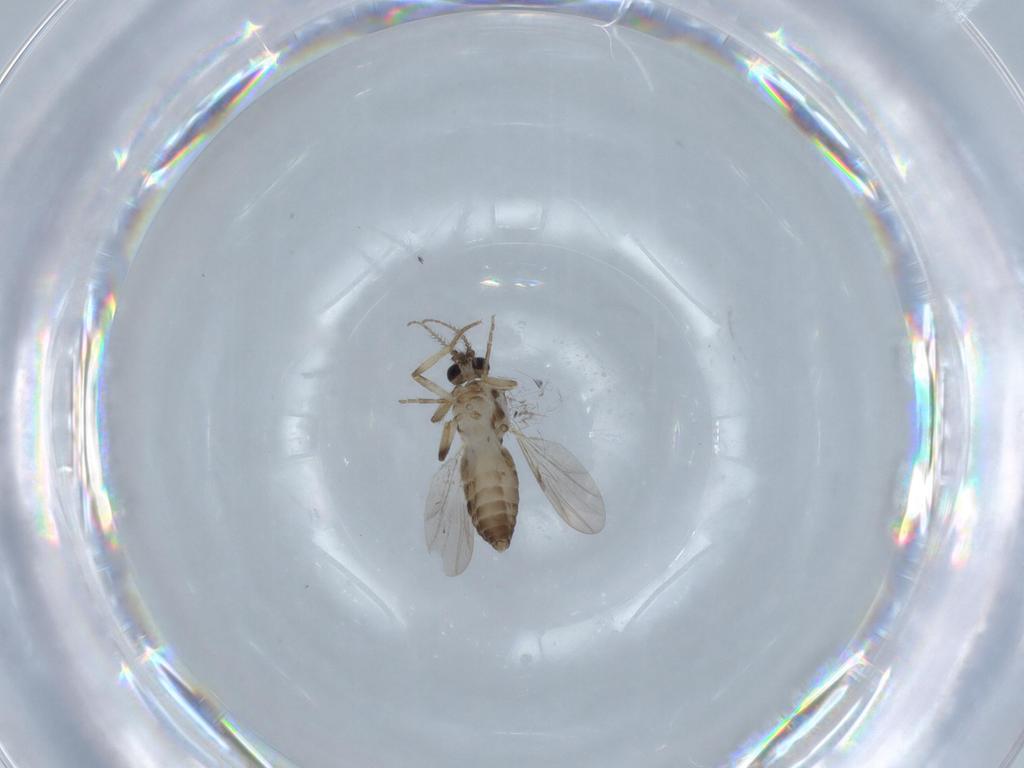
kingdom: Animalia
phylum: Arthropoda
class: Insecta
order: Diptera
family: Ceratopogonidae
